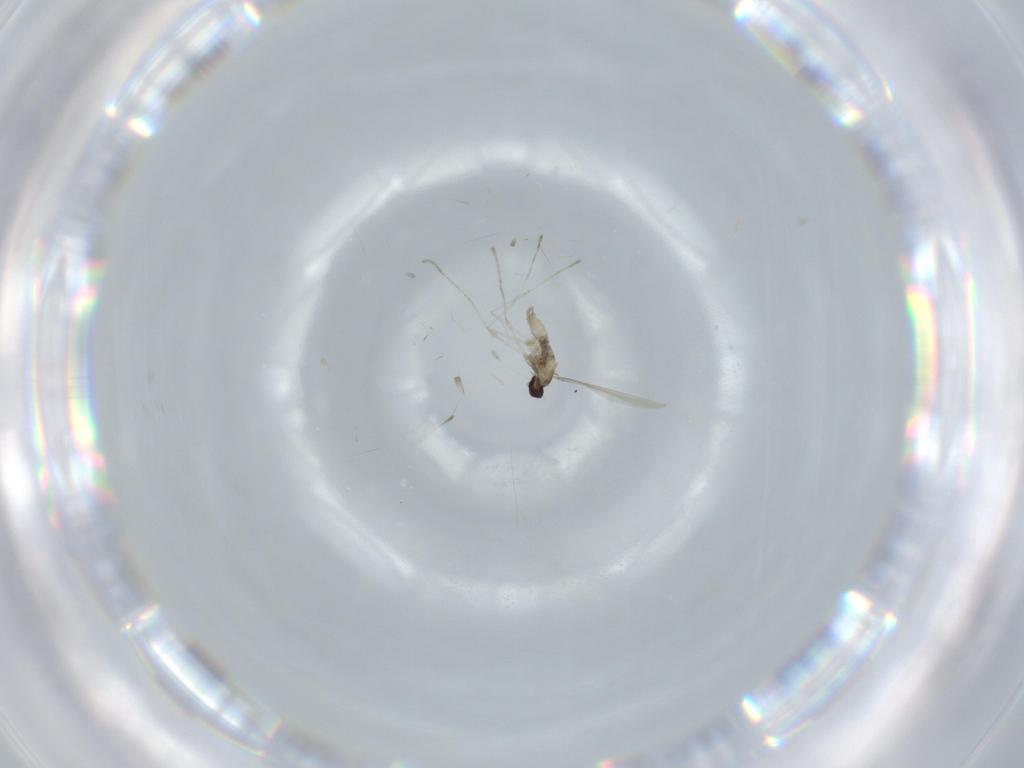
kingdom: Animalia
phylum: Arthropoda
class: Insecta
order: Diptera
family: Cecidomyiidae
